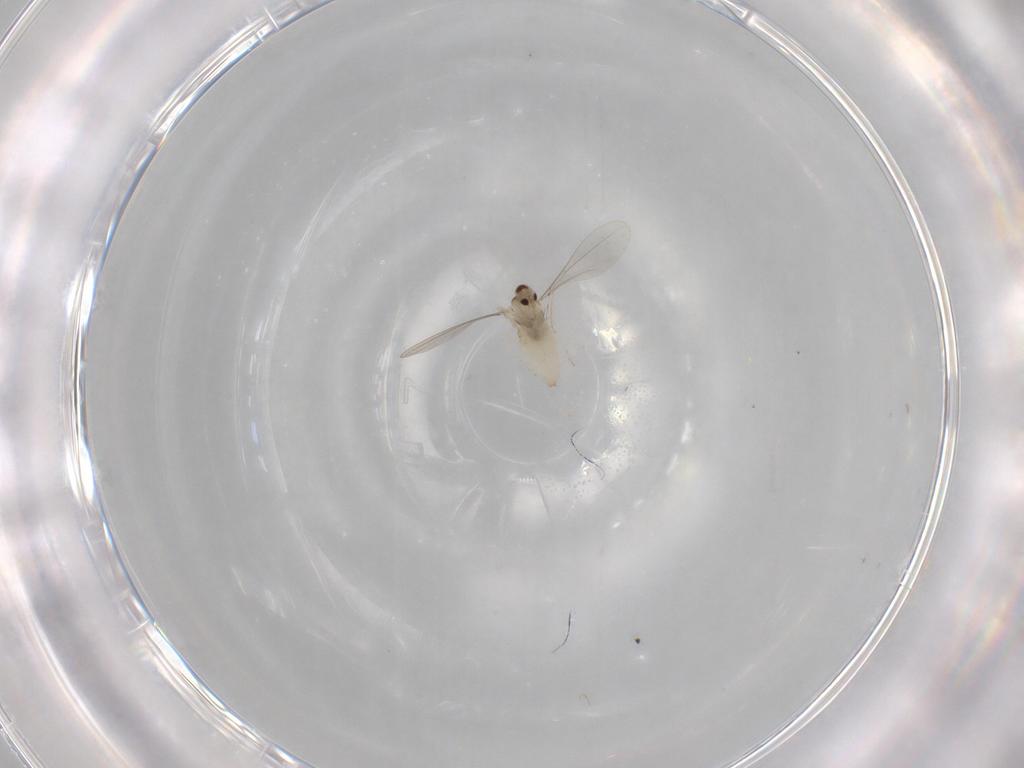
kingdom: Animalia
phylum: Arthropoda
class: Insecta
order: Diptera
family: Cecidomyiidae
